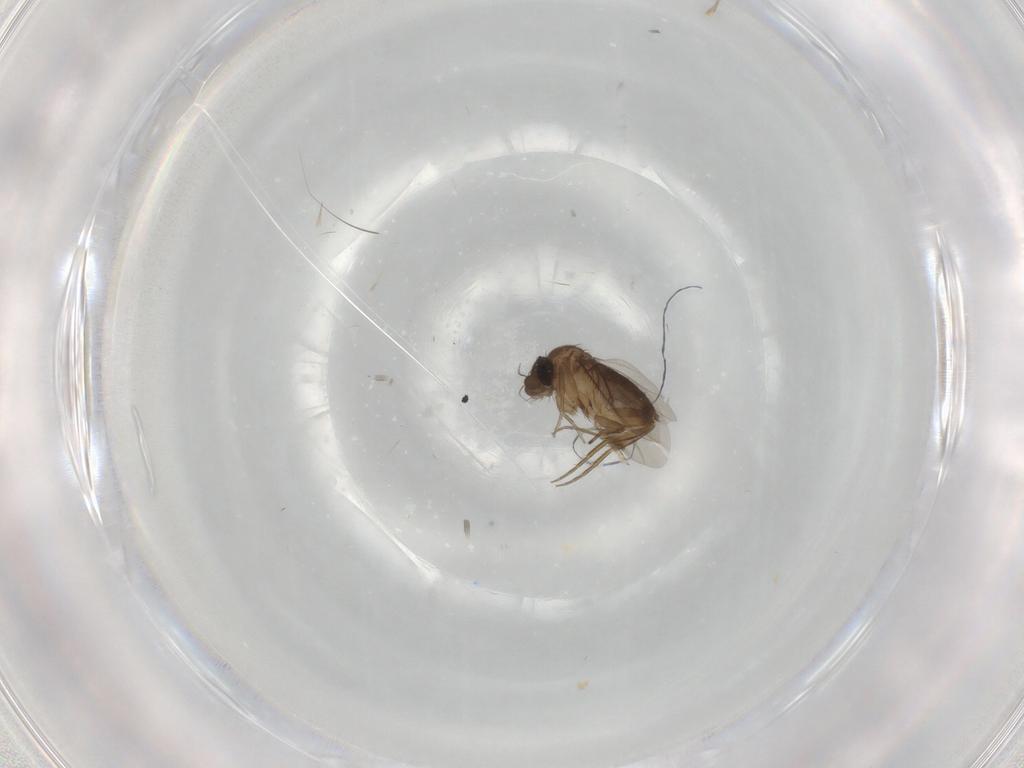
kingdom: Animalia
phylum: Arthropoda
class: Insecta
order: Diptera
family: Phoridae
